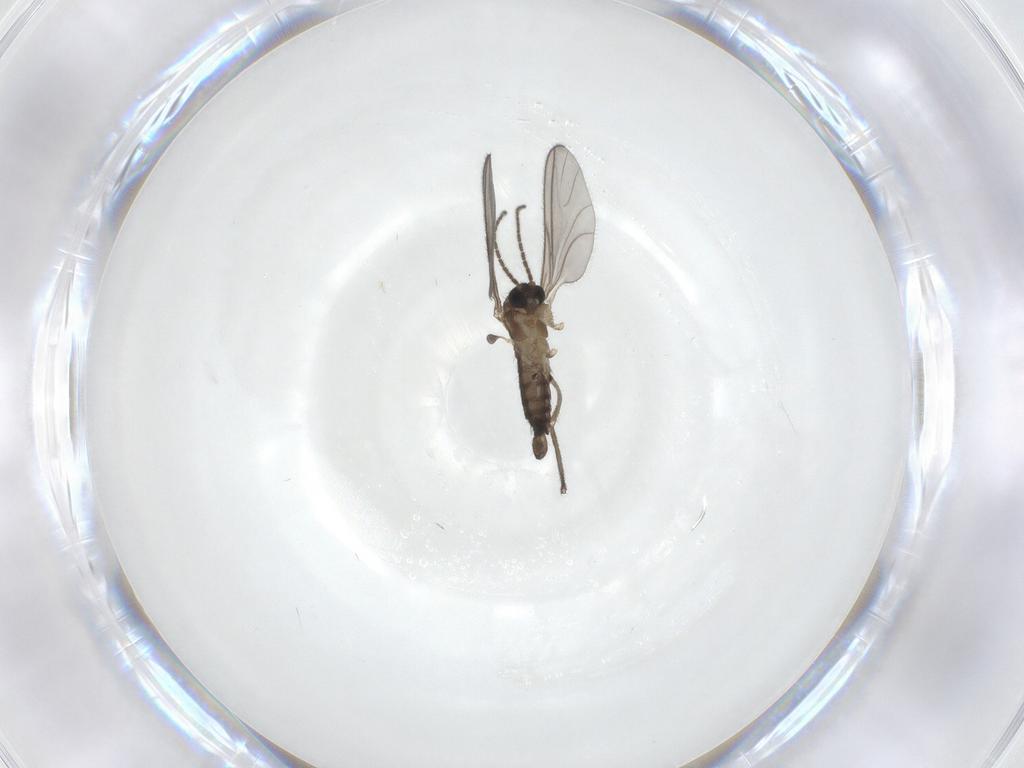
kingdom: Animalia
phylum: Arthropoda
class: Insecta
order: Diptera
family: Sciaridae
